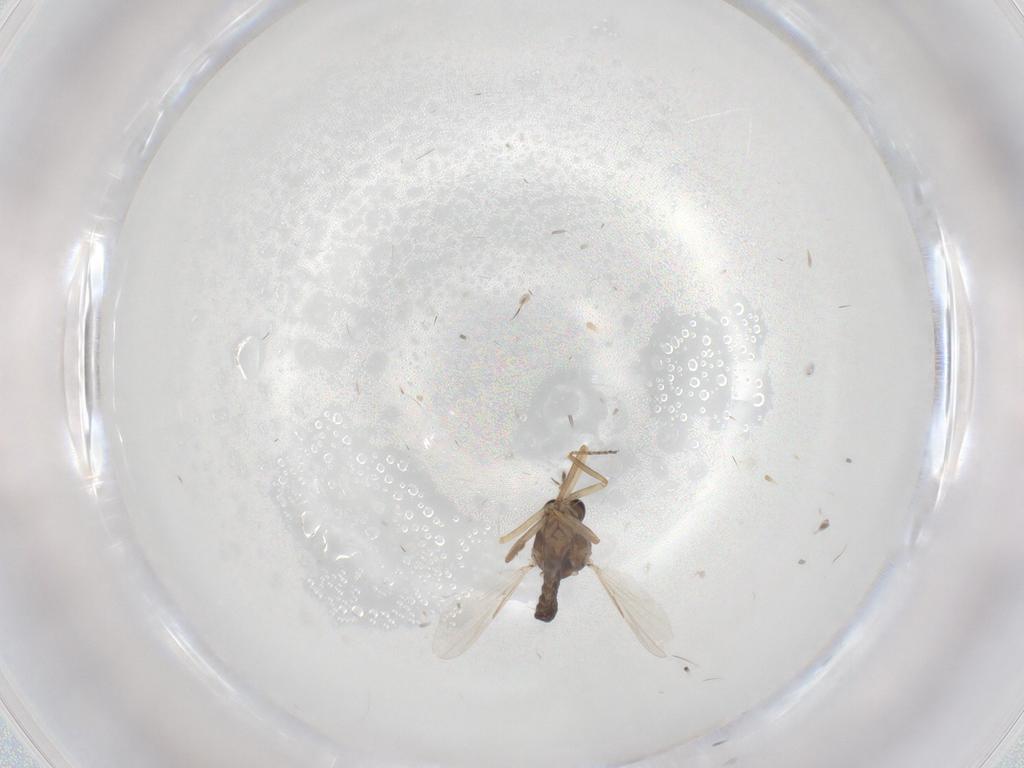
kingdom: Animalia
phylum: Arthropoda
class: Insecta
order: Diptera
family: Ceratopogonidae
